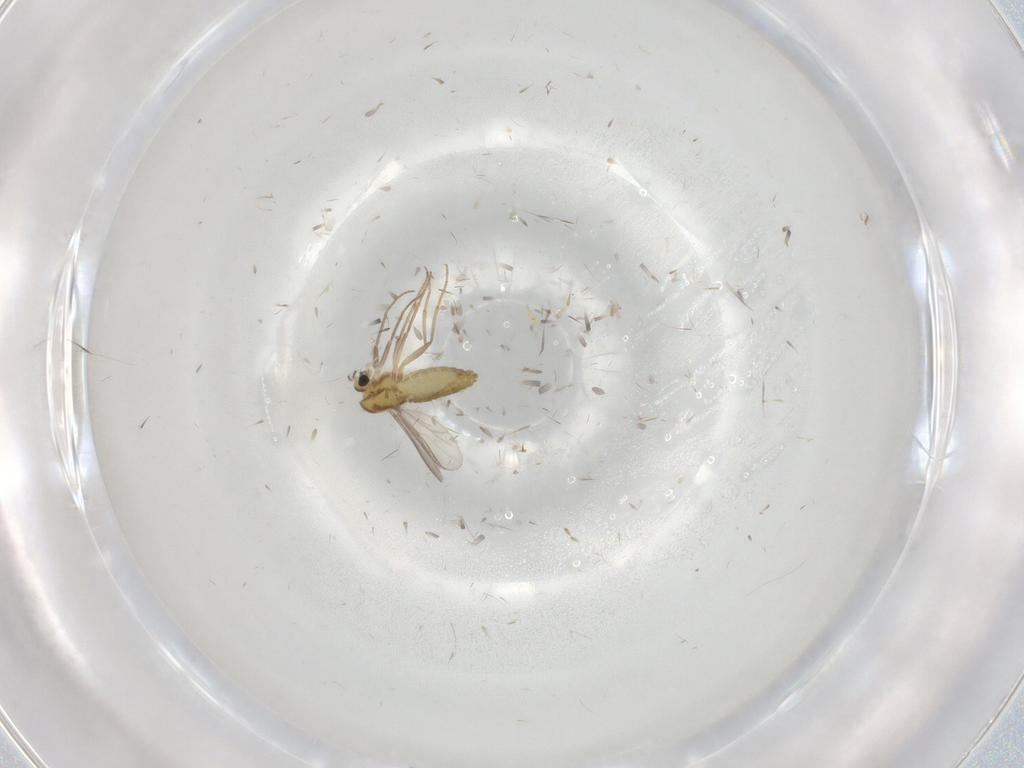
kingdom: Animalia
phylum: Arthropoda
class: Insecta
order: Diptera
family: Chironomidae
